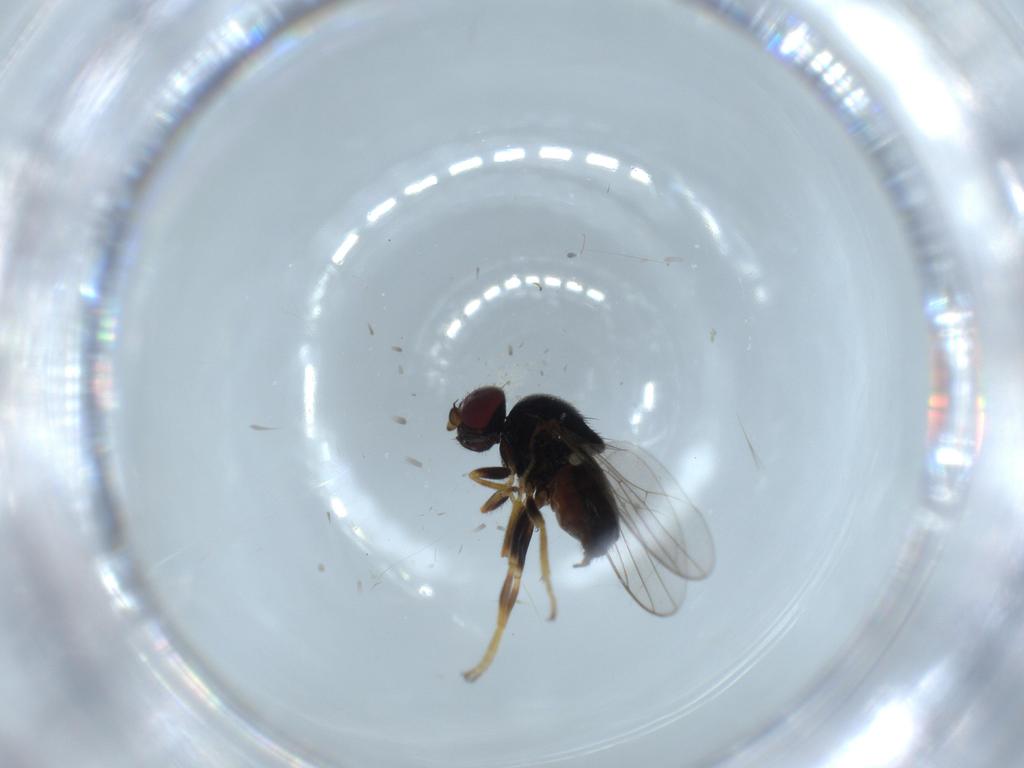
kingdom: Animalia
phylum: Arthropoda
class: Insecta
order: Diptera
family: Chloropidae
